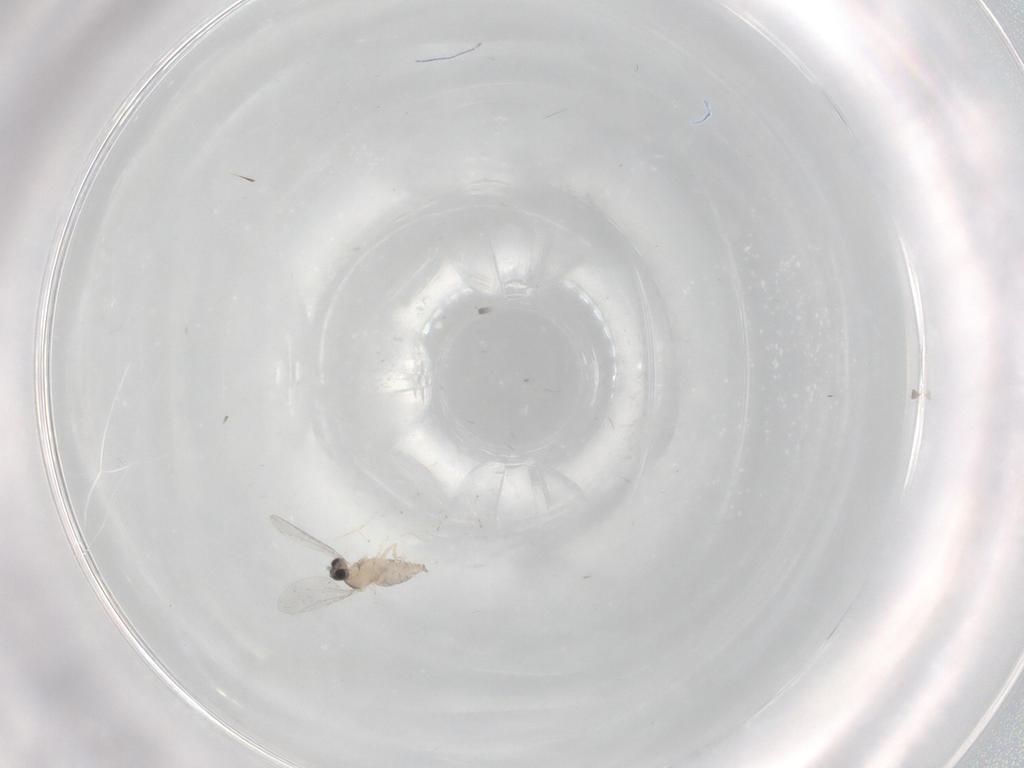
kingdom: Animalia
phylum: Arthropoda
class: Insecta
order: Diptera
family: Cecidomyiidae
